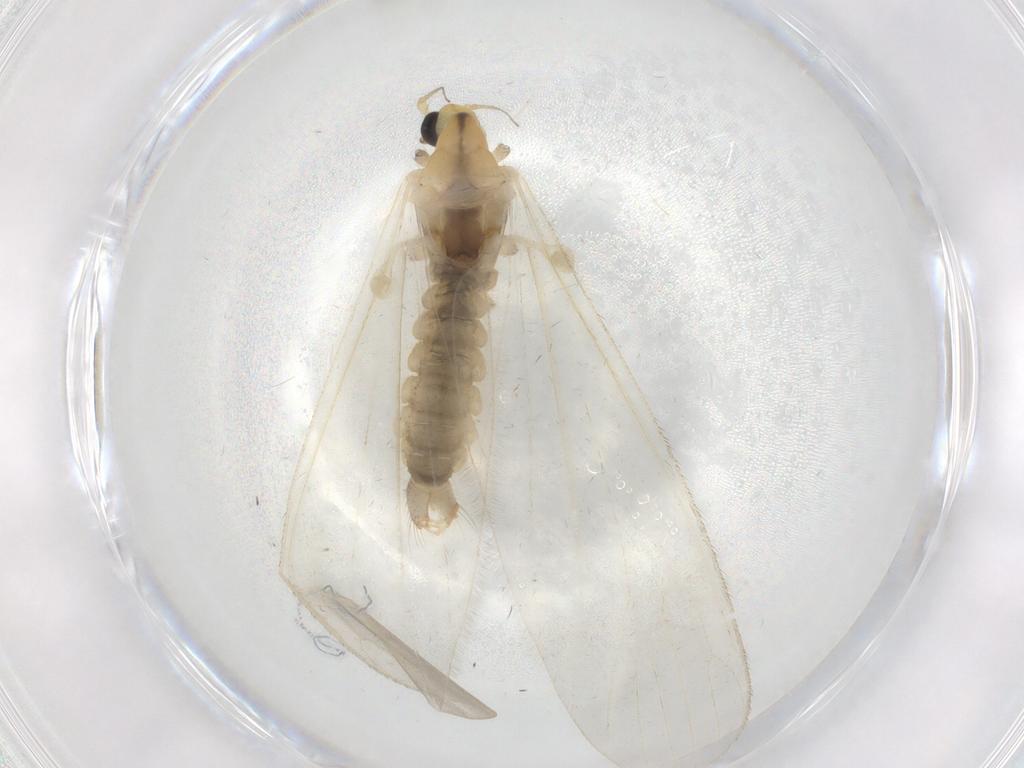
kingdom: Animalia
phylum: Arthropoda
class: Insecta
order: Diptera
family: Limoniidae
